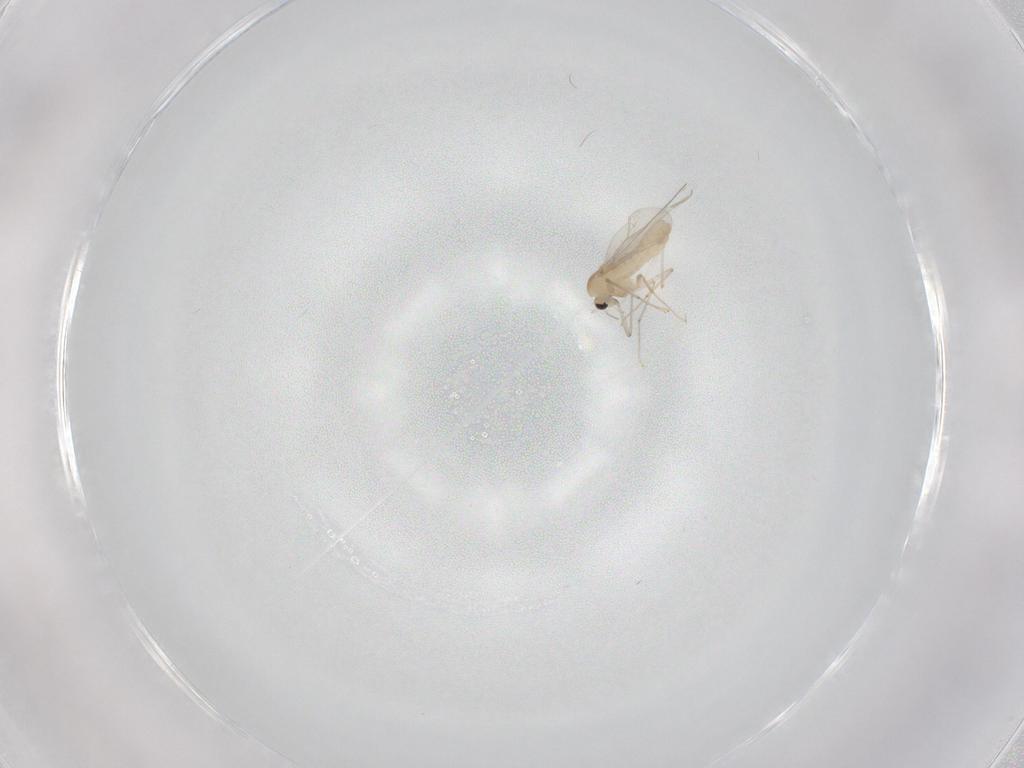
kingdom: Animalia
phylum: Arthropoda
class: Insecta
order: Diptera
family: Chironomidae
